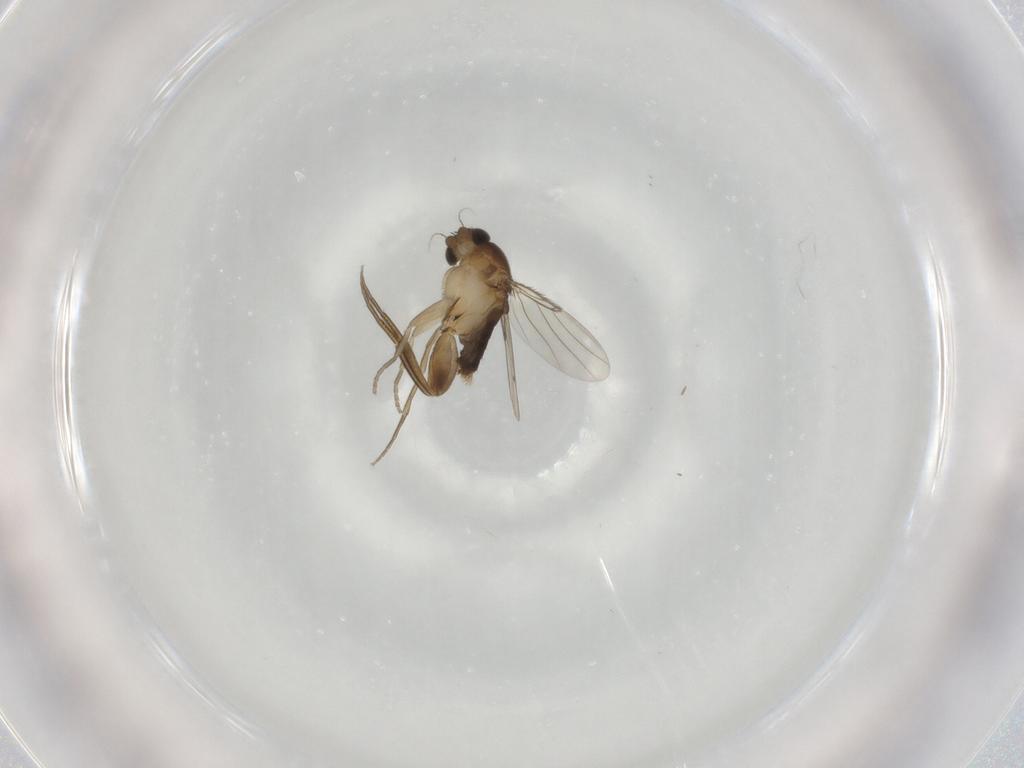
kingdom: Animalia
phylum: Arthropoda
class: Insecta
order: Diptera
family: Phoridae
